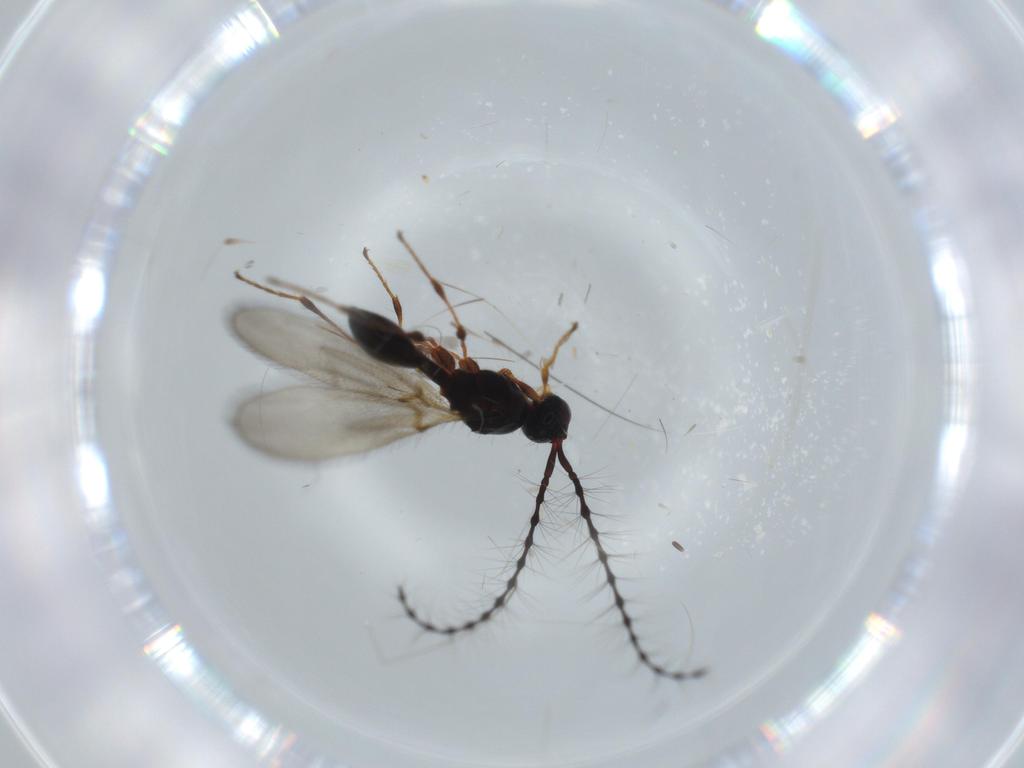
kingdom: Animalia
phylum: Arthropoda
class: Insecta
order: Hymenoptera
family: Diapriidae
